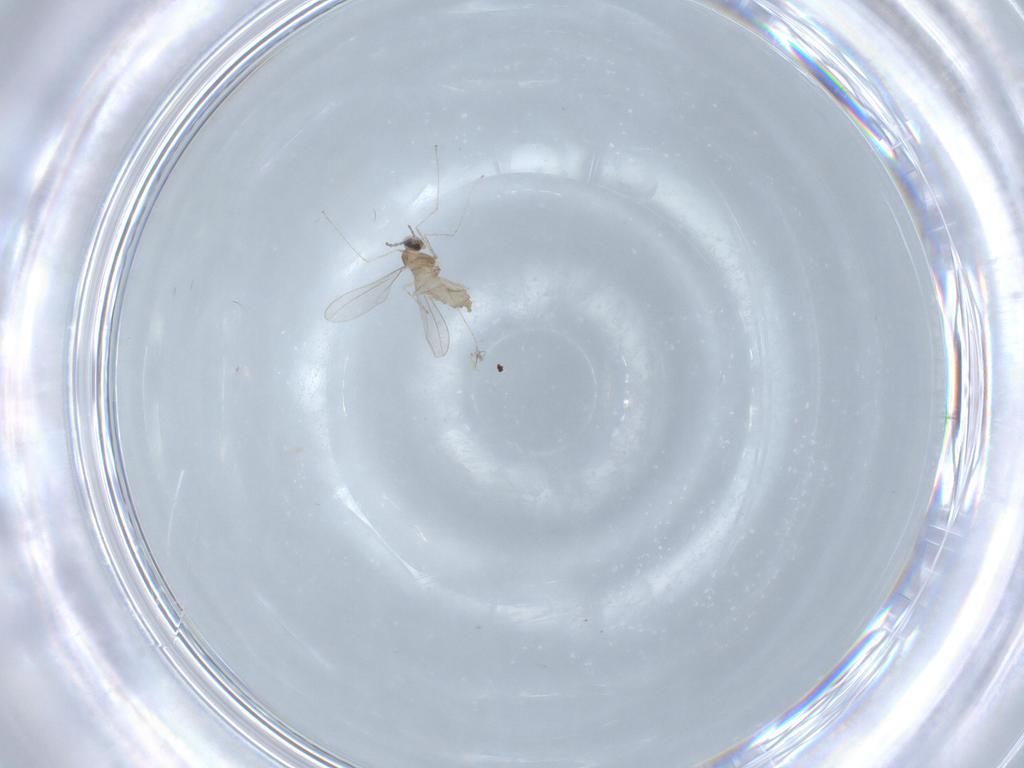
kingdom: Animalia
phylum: Arthropoda
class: Insecta
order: Diptera
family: Cecidomyiidae
